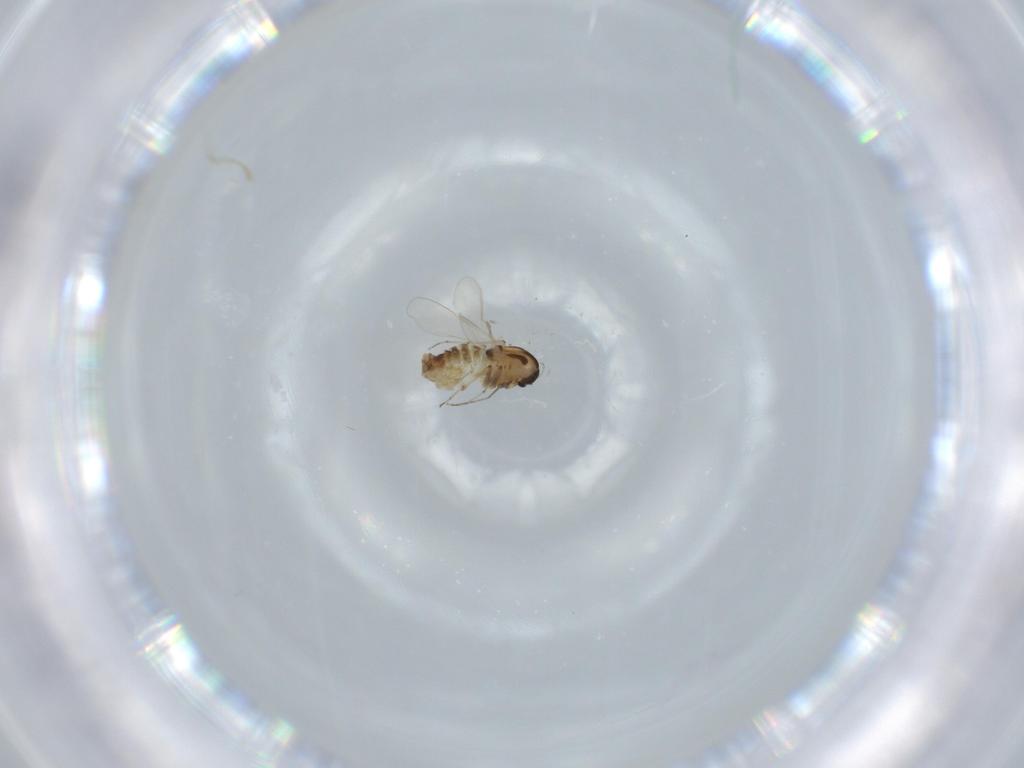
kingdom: Animalia
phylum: Arthropoda
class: Insecta
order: Diptera
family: Chironomidae
